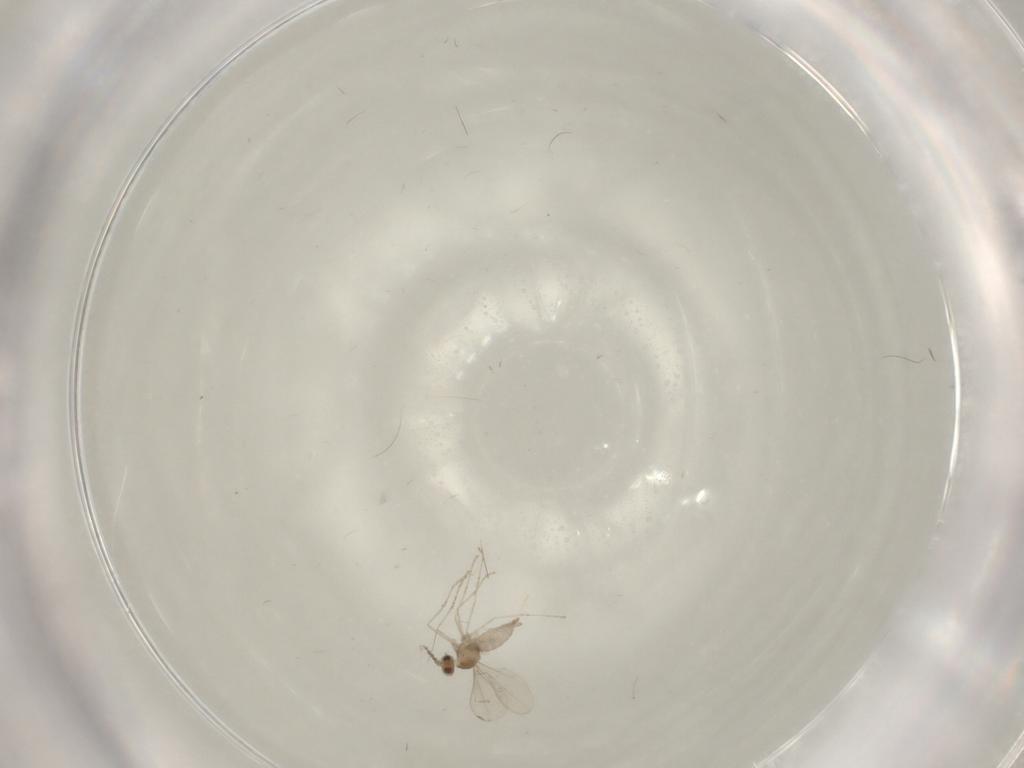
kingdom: Animalia
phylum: Arthropoda
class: Insecta
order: Diptera
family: Cecidomyiidae
